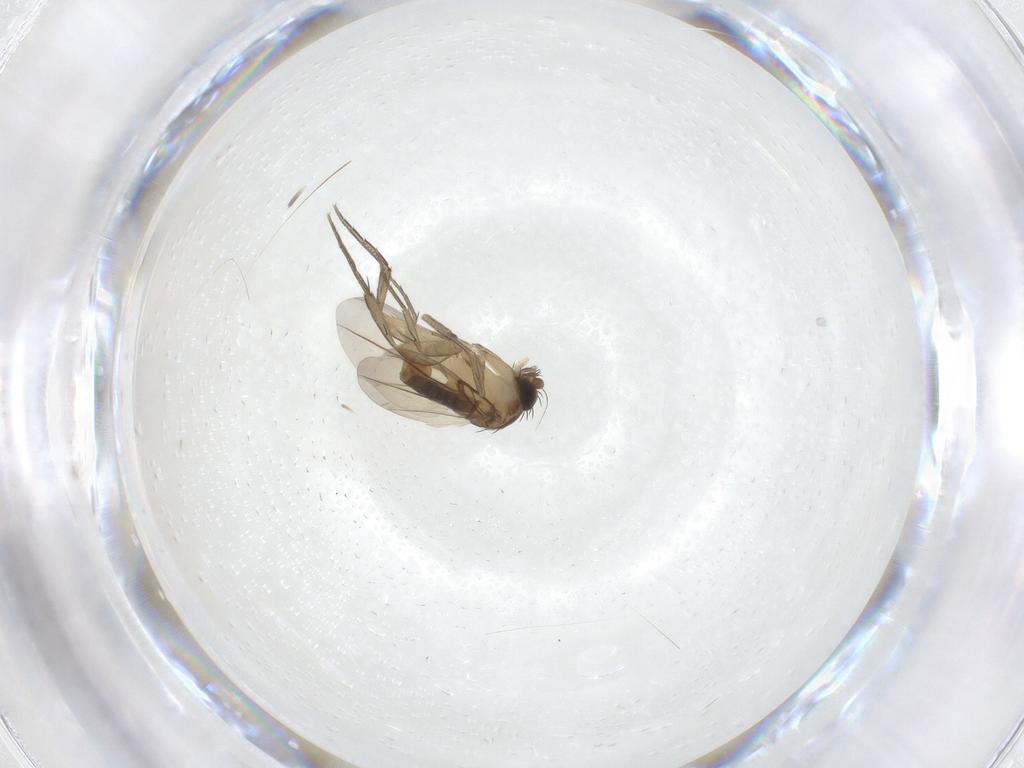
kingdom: Animalia
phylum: Arthropoda
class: Insecta
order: Diptera
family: Phoridae
